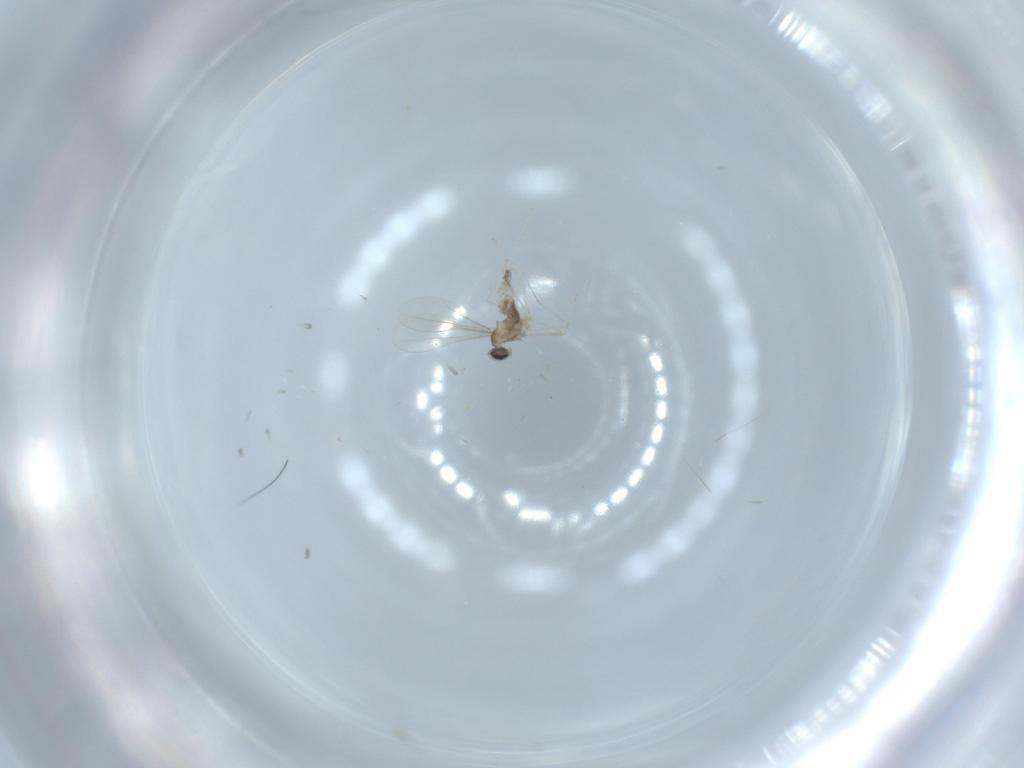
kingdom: Animalia
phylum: Arthropoda
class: Insecta
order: Diptera
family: Cecidomyiidae
